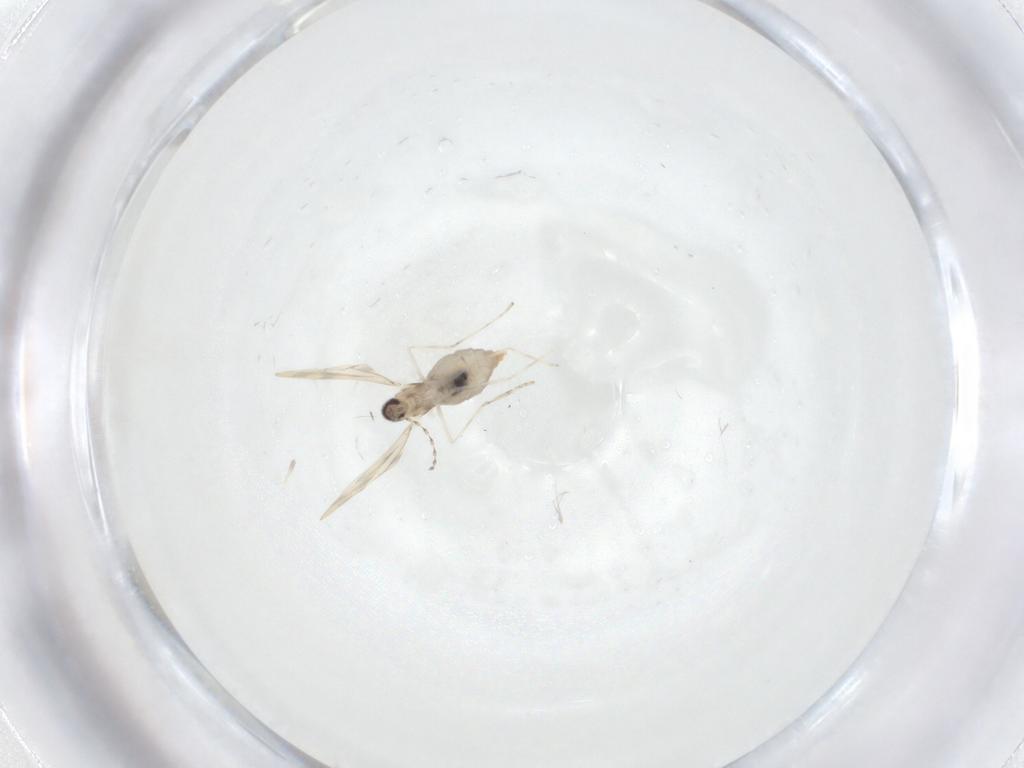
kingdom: Animalia
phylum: Arthropoda
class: Insecta
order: Diptera
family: Cecidomyiidae
